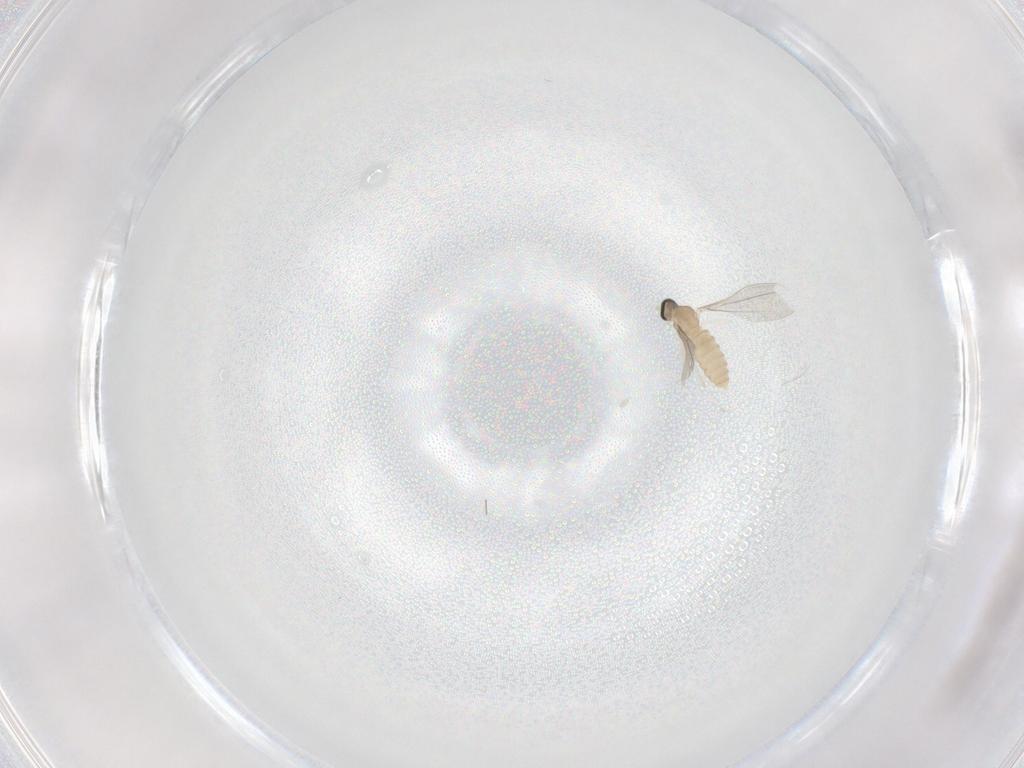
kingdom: Animalia
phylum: Arthropoda
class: Insecta
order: Diptera
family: Cecidomyiidae
